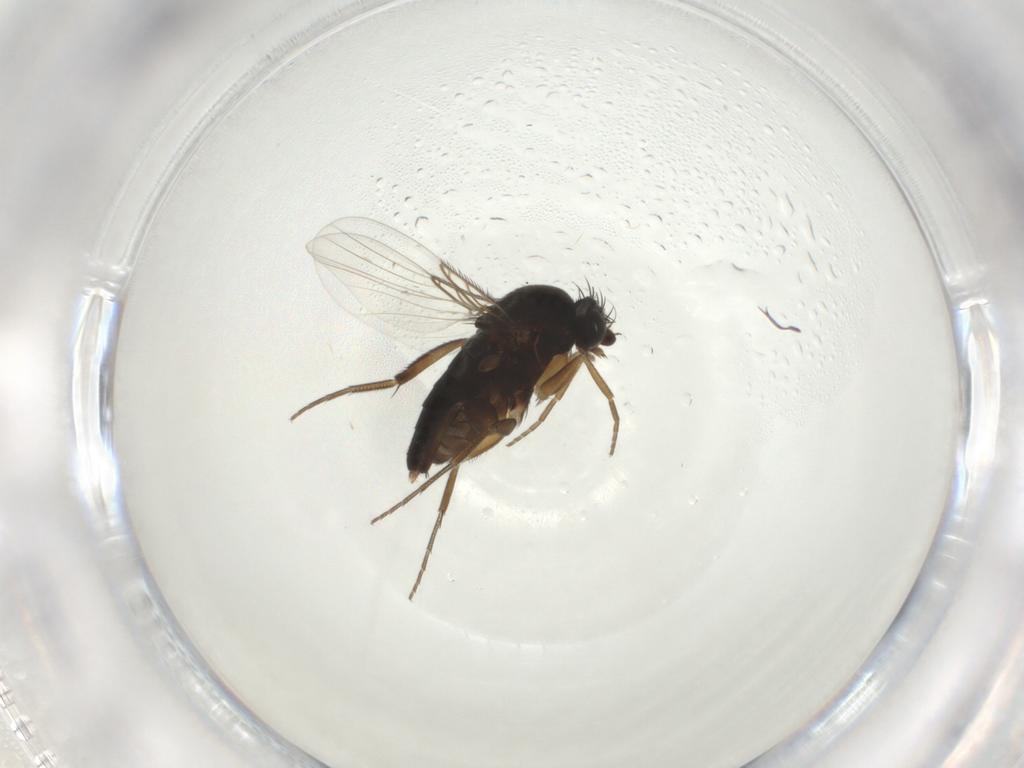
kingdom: Animalia
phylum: Arthropoda
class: Insecta
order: Diptera
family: Phoridae
